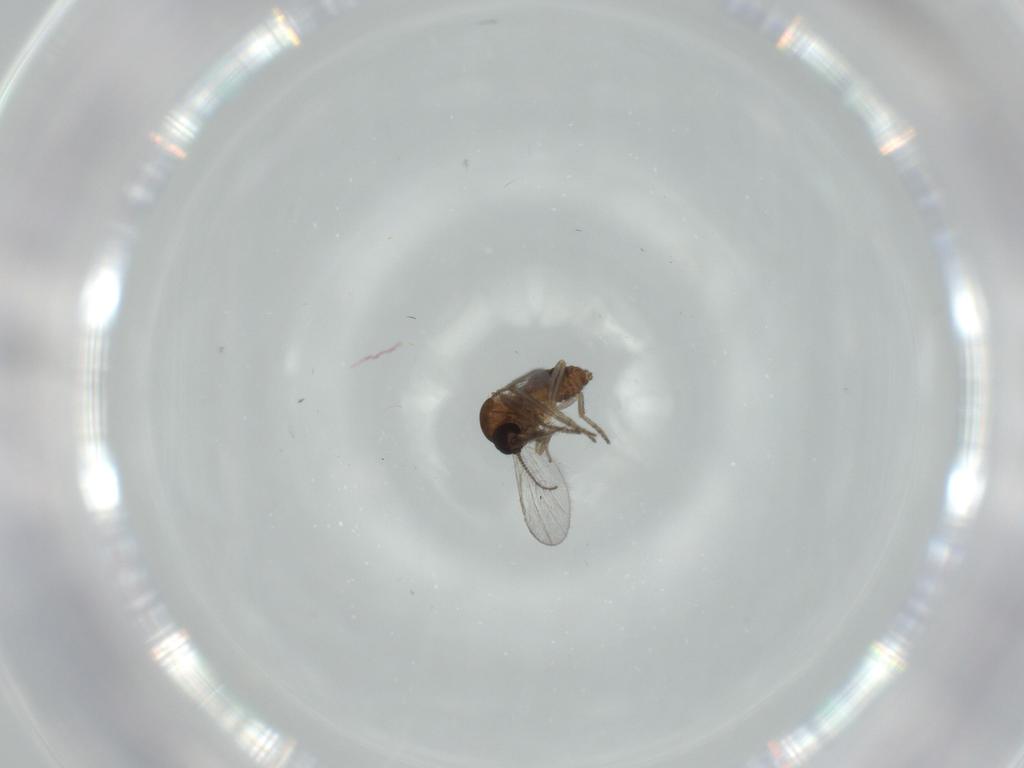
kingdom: Animalia
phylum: Arthropoda
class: Insecta
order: Diptera
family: Ceratopogonidae
